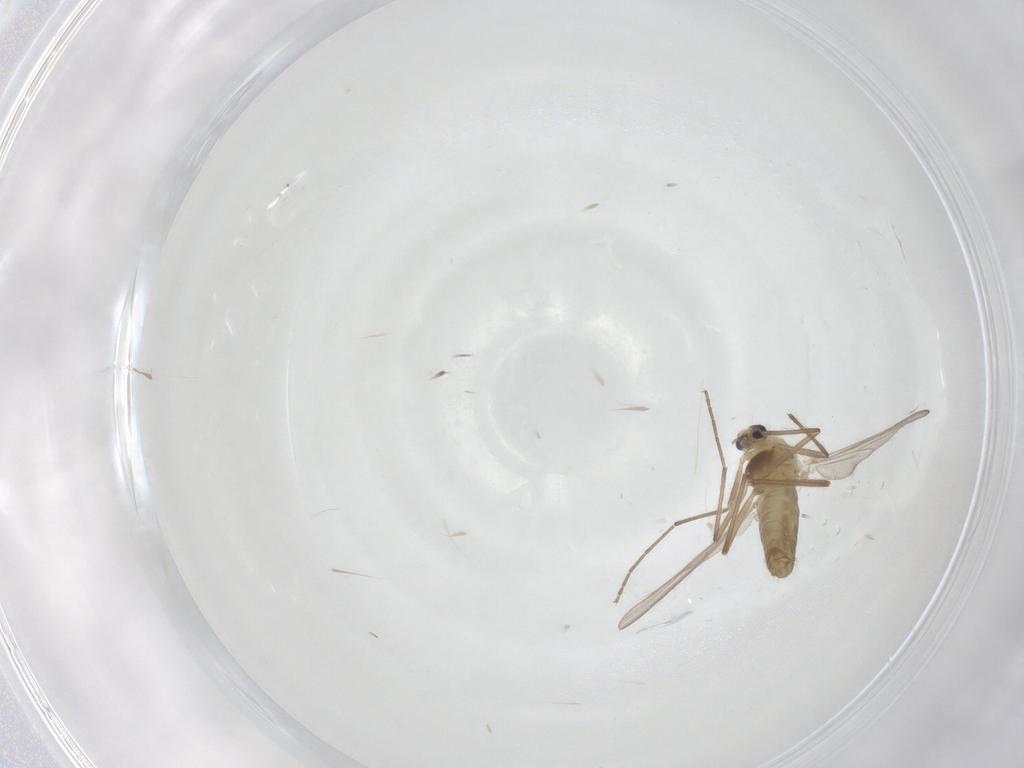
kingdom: Animalia
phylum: Arthropoda
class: Insecta
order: Diptera
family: Chironomidae
